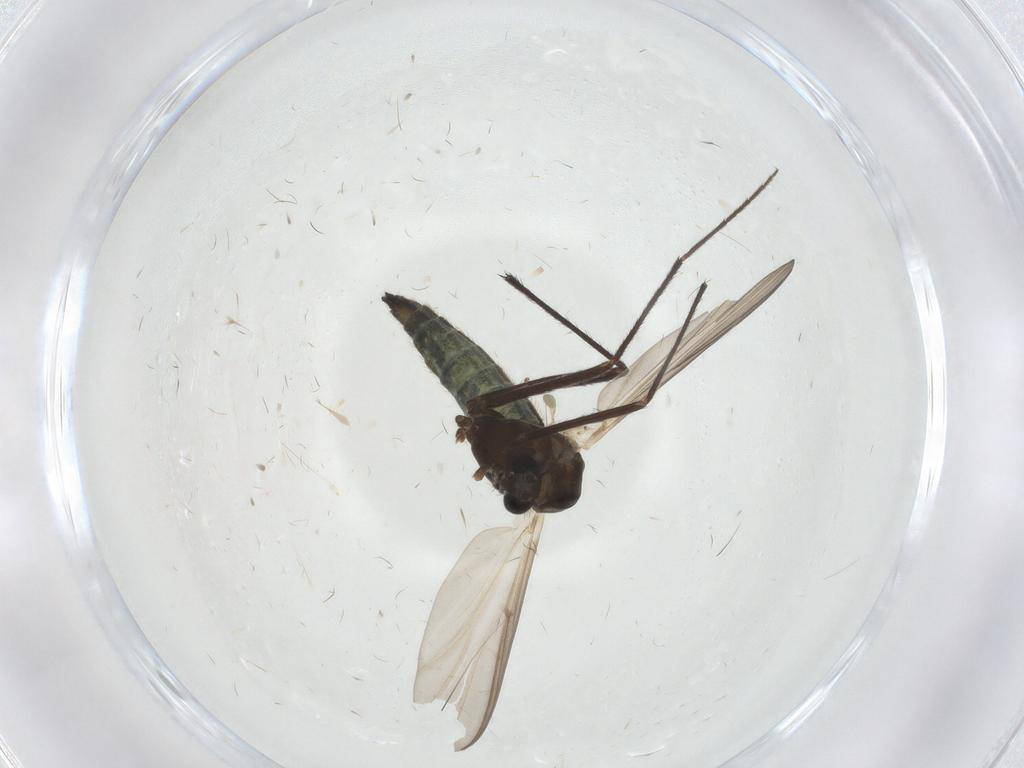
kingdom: Animalia
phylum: Arthropoda
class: Insecta
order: Diptera
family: Chironomidae
